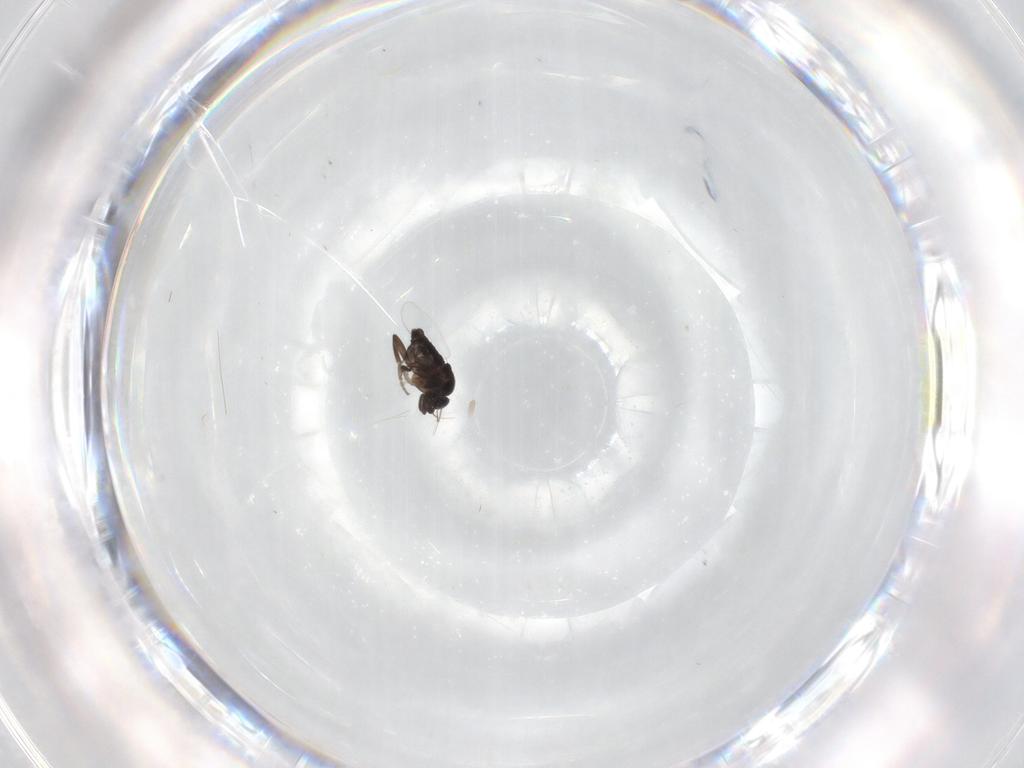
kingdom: Animalia
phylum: Arthropoda
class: Insecta
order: Diptera
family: Phoridae
